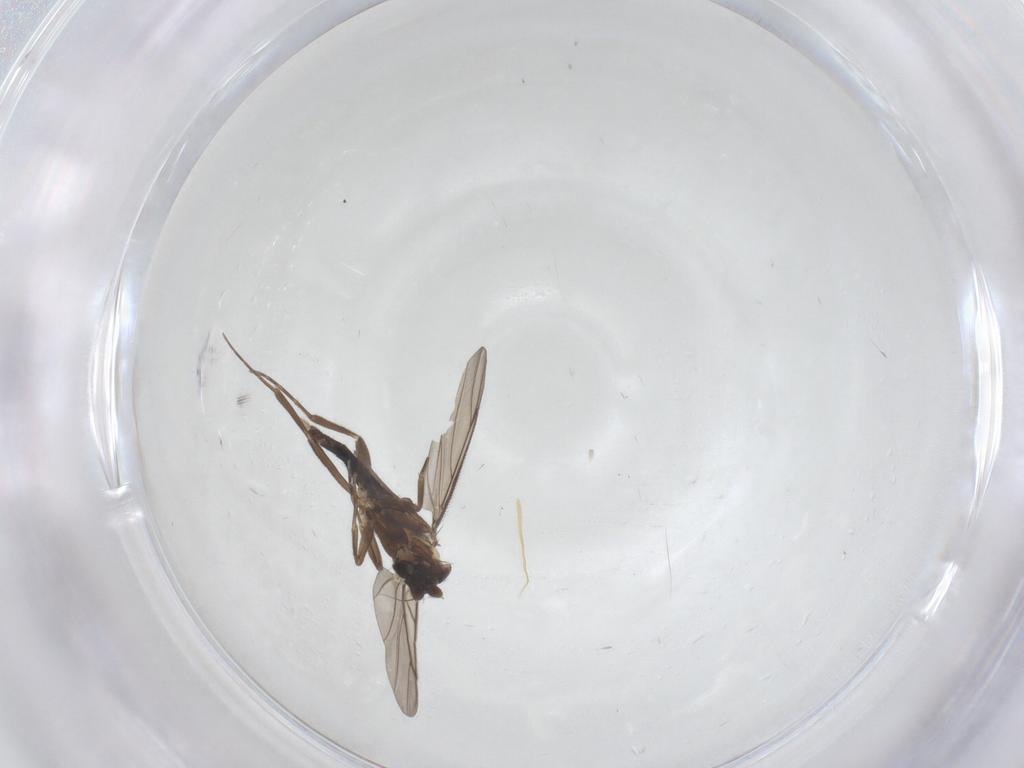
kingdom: Animalia
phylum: Arthropoda
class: Insecta
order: Diptera
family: Phoridae
